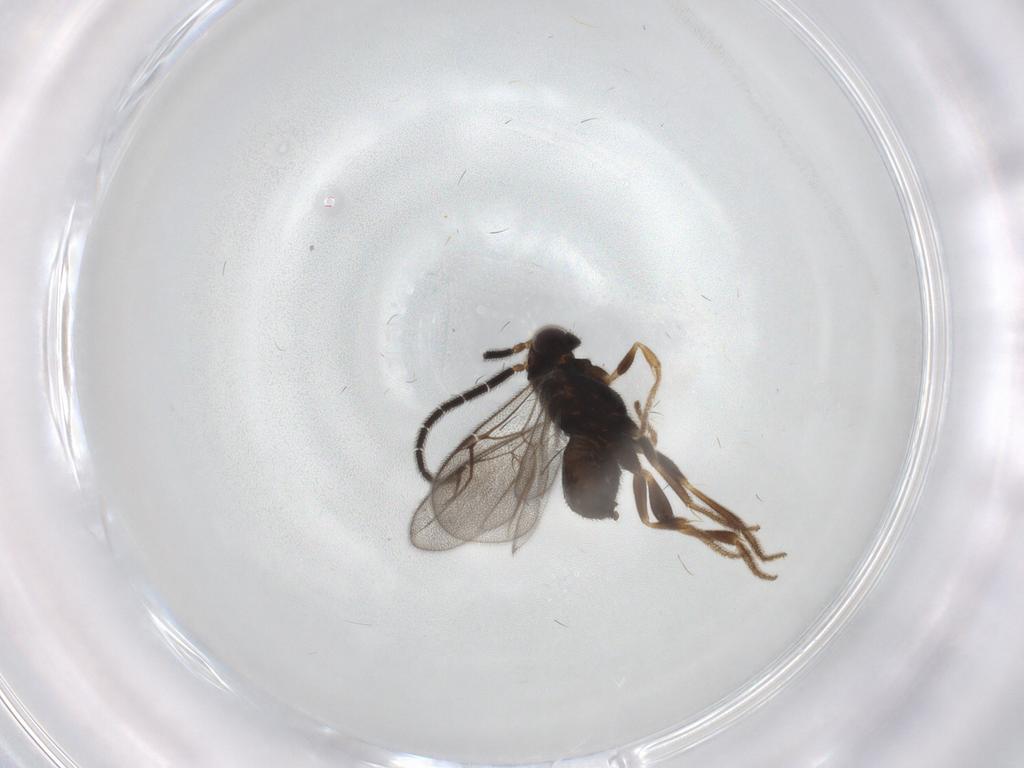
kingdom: Animalia
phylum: Arthropoda
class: Insecta
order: Hymenoptera
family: Dryinidae
